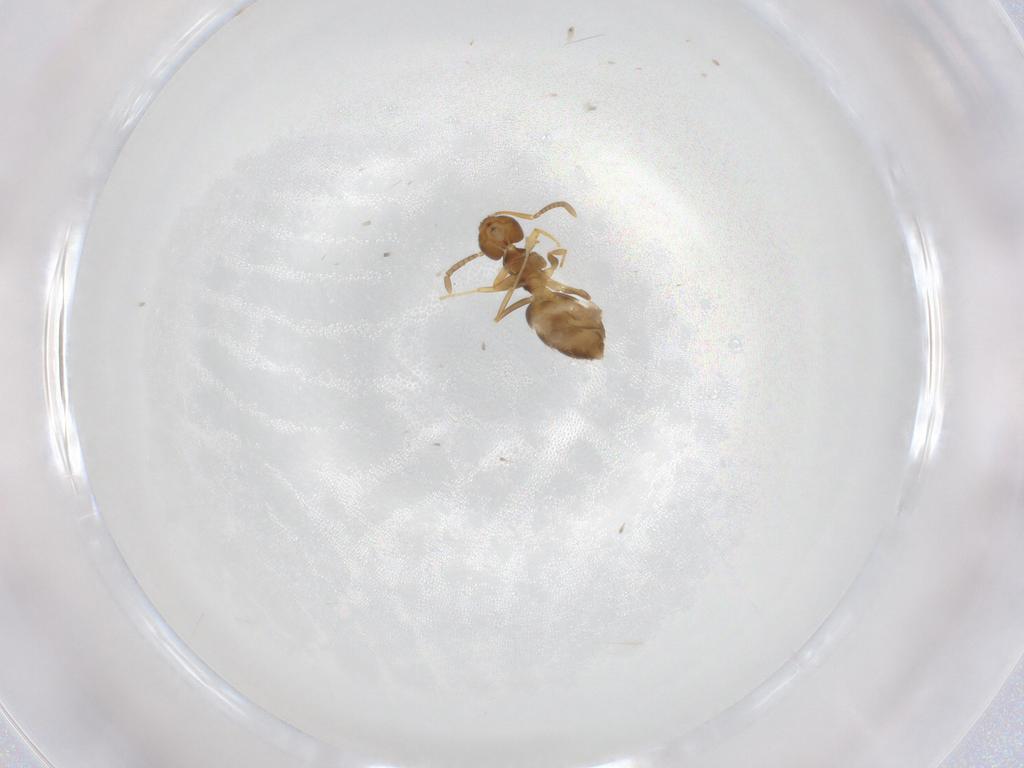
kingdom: Animalia
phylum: Arthropoda
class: Insecta
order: Hymenoptera
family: Formicidae
